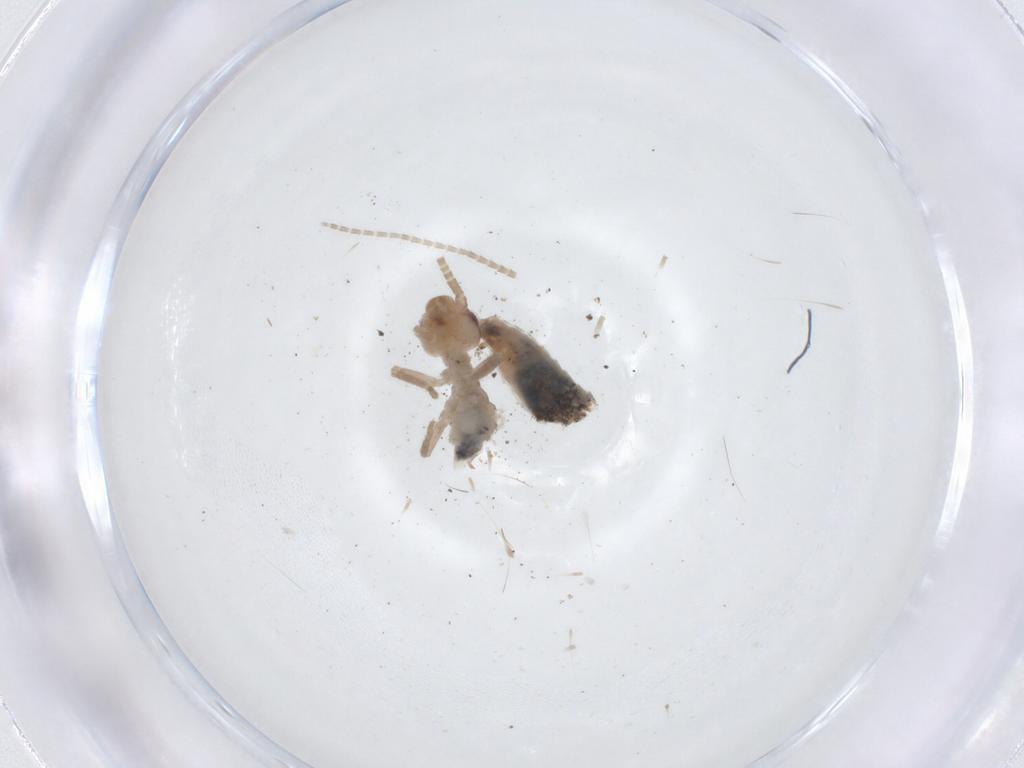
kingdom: Animalia
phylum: Arthropoda
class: Insecta
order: Orthoptera
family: Mogoplistidae
